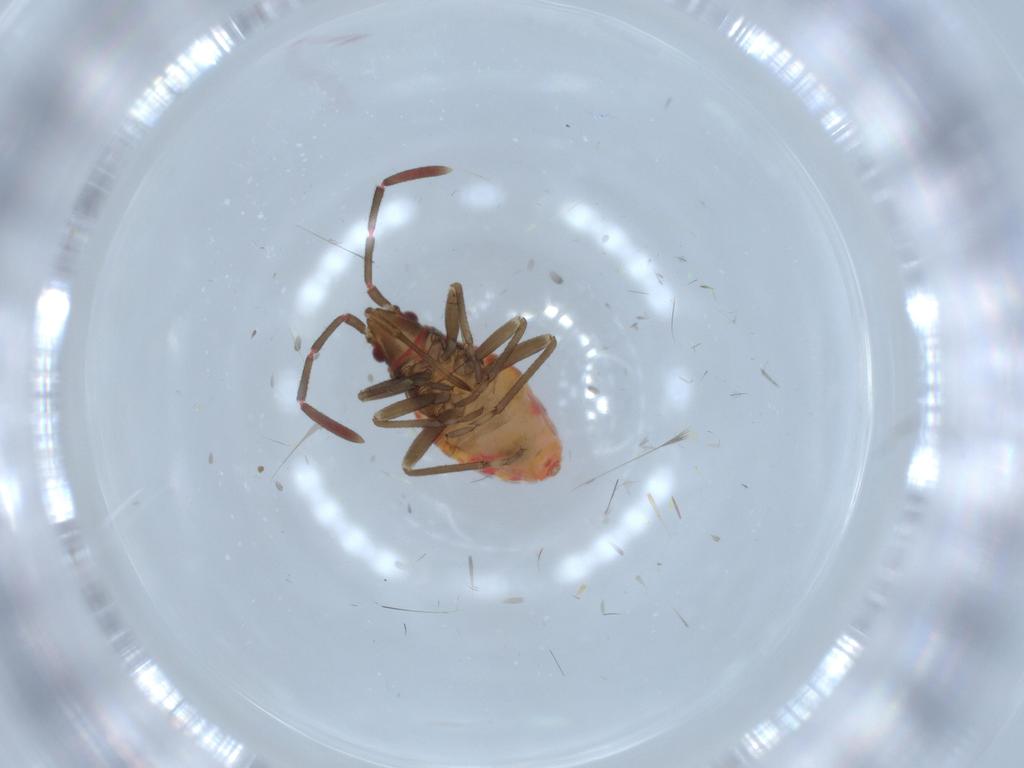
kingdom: Animalia
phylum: Arthropoda
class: Insecta
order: Hemiptera
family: Rhyparochromidae
